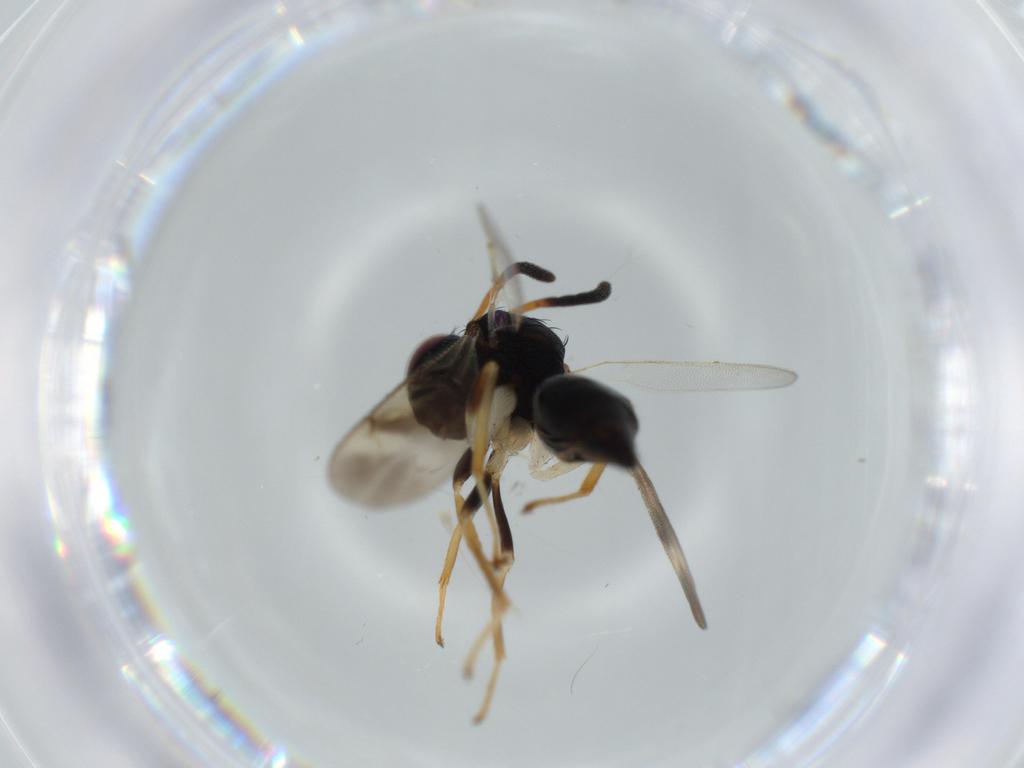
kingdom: Animalia
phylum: Arthropoda
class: Insecta
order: Hymenoptera
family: Diparidae
